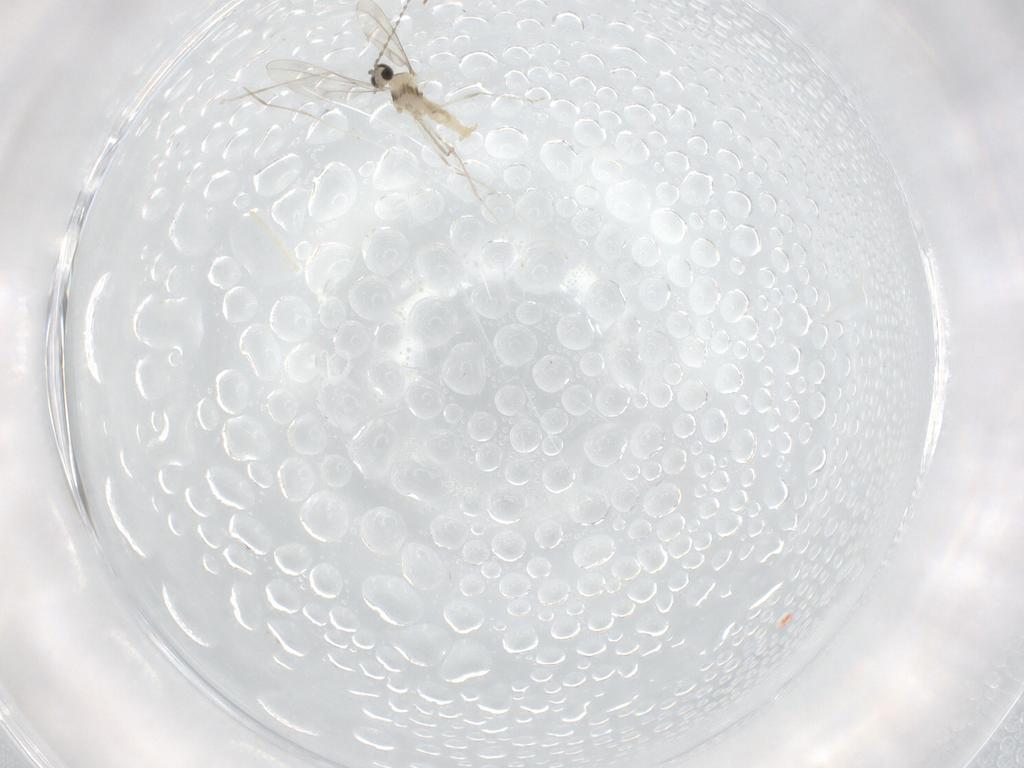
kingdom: Animalia
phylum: Arthropoda
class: Insecta
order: Diptera
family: Cecidomyiidae
